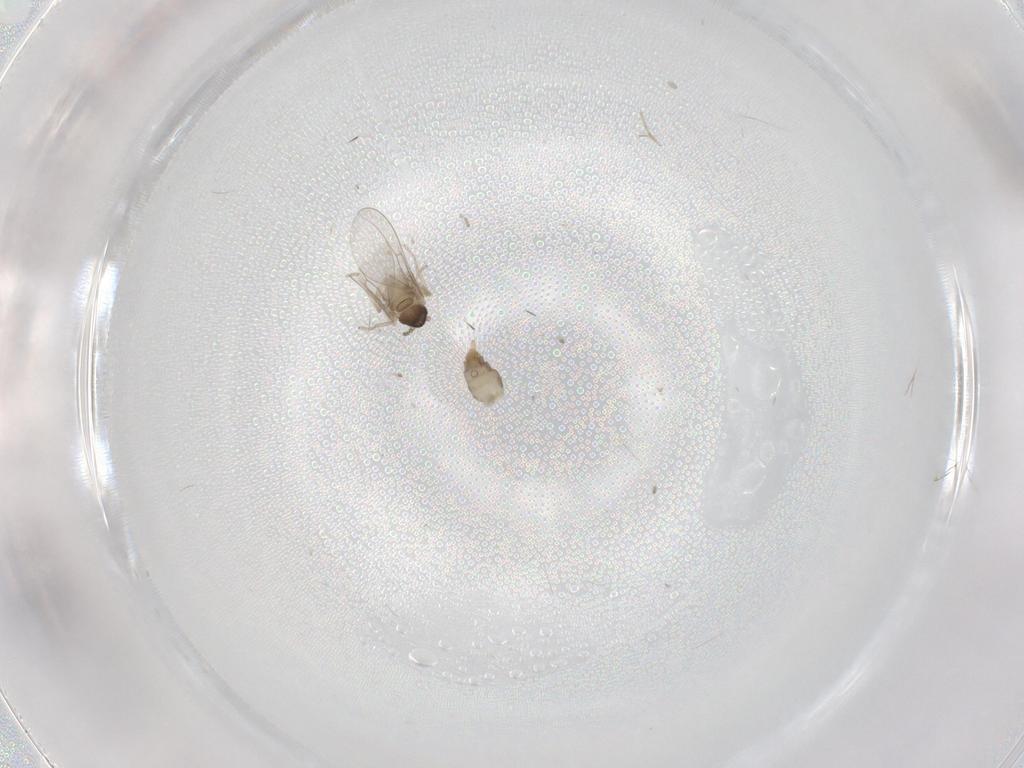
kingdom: Animalia
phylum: Arthropoda
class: Insecta
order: Diptera
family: Cecidomyiidae
